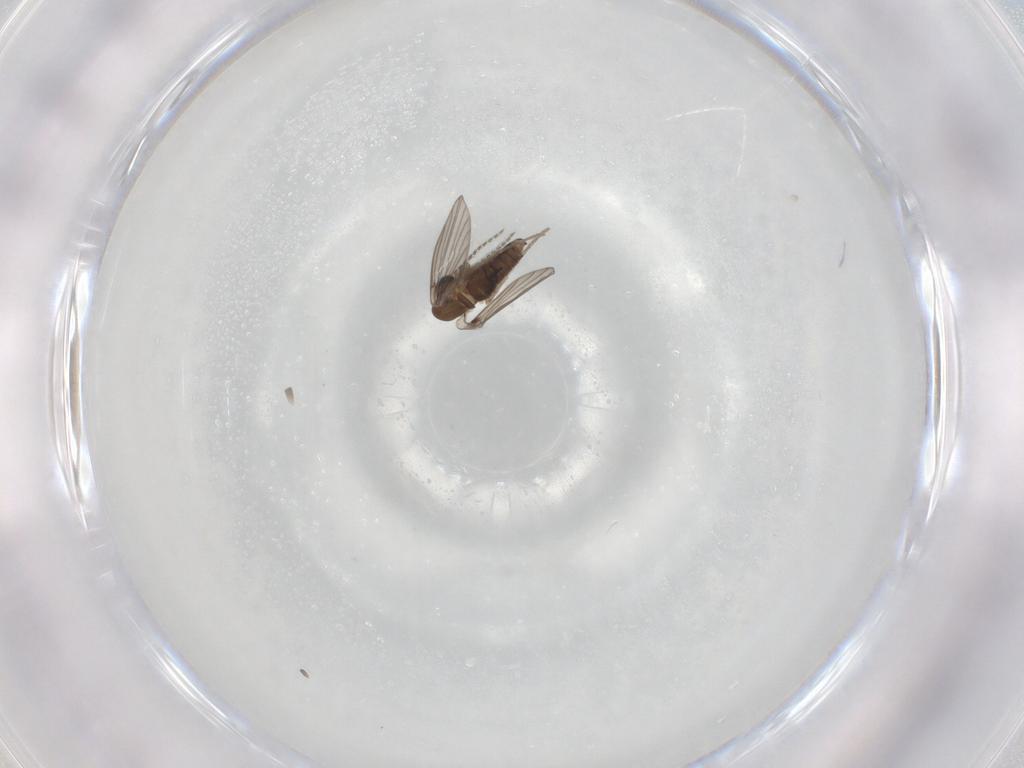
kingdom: Animalia
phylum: Arthropoda
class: Insecta
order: Diptera
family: Cecidomyiidae
